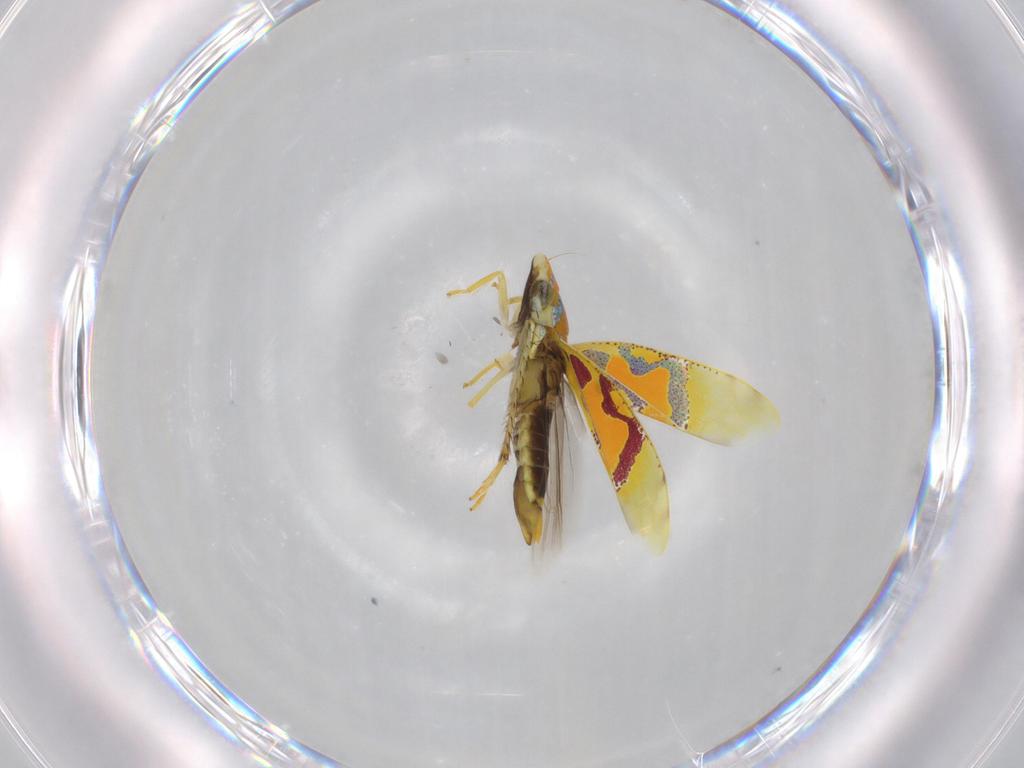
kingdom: Animalia
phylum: Arthropoda
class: Insecta
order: Hemiptera
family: Cicadellidae
